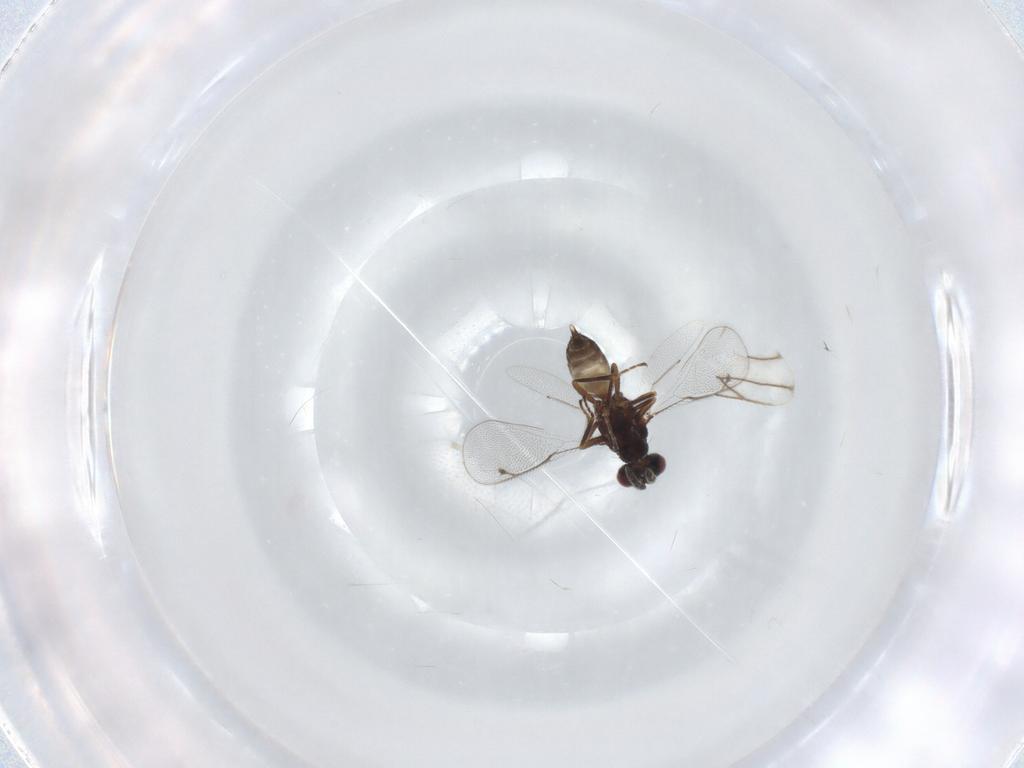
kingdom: Animalia
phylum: Arthropoda
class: Insecta
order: Hymenoptera
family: Eulophidae
